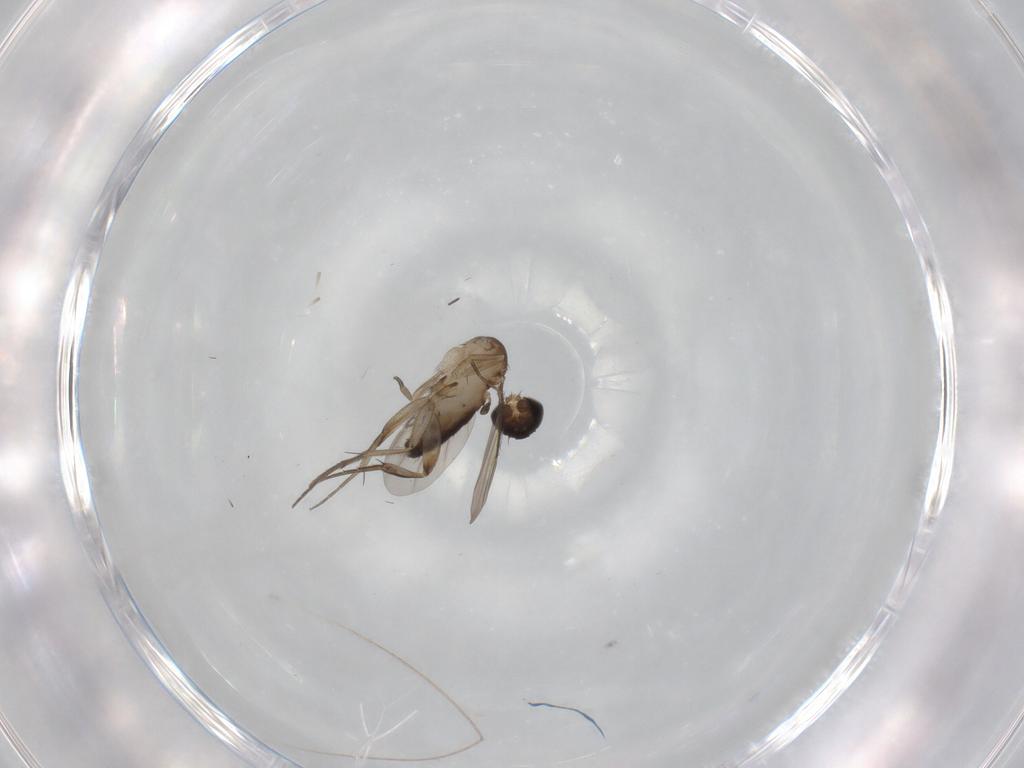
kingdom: Animalia
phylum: Arthropoda
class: Insecta
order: Diptera
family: Phoridae
